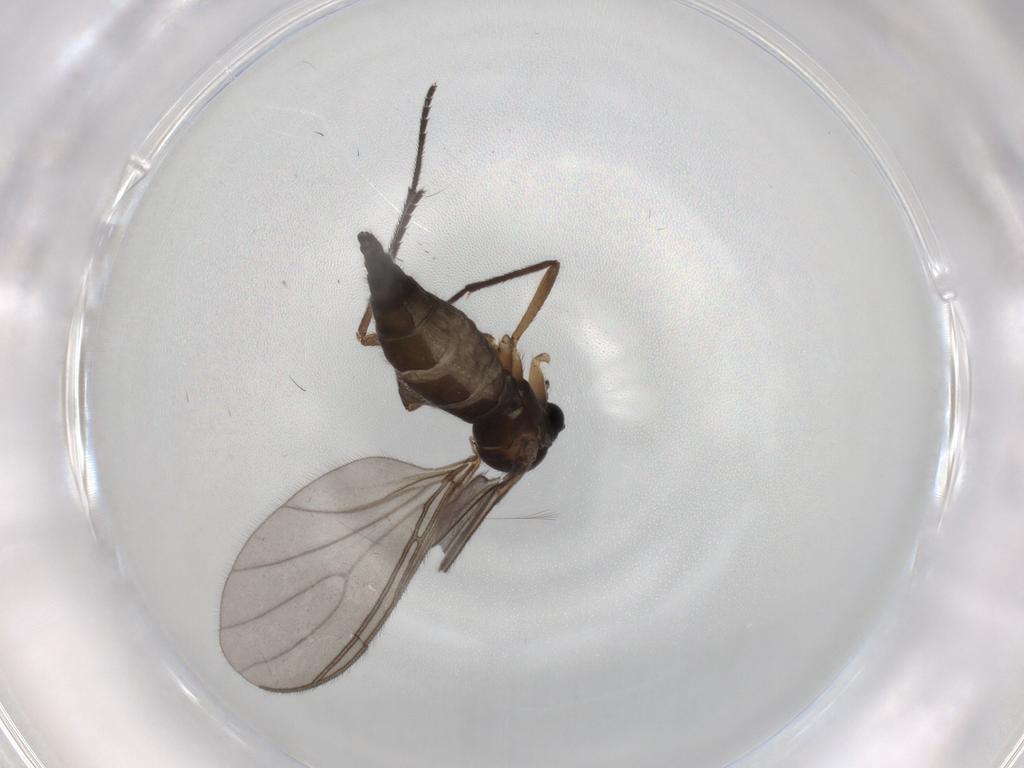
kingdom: Animalia
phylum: Arthropoda
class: Insecta
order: Diptera
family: Sciaridae
